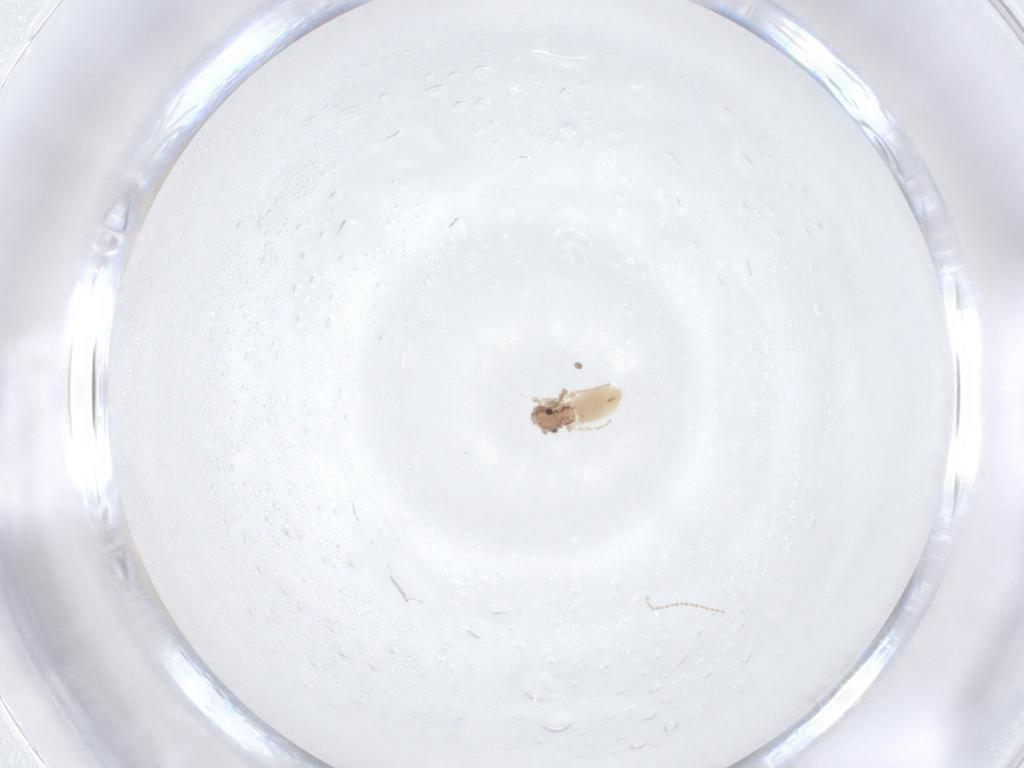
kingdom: Animalia
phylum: Arthropoda
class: Insecta
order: Psocodea
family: Lepidopsocidae
